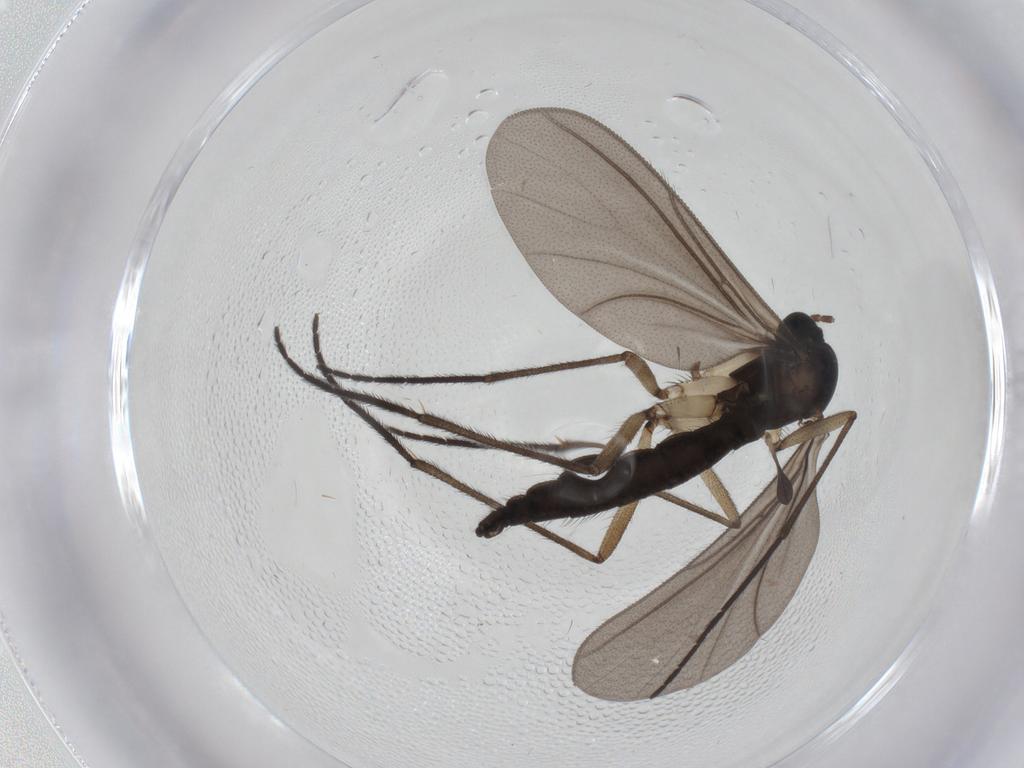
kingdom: Animalia
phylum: Arthropoda
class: Insecta
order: Diptera
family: Sciaridae
